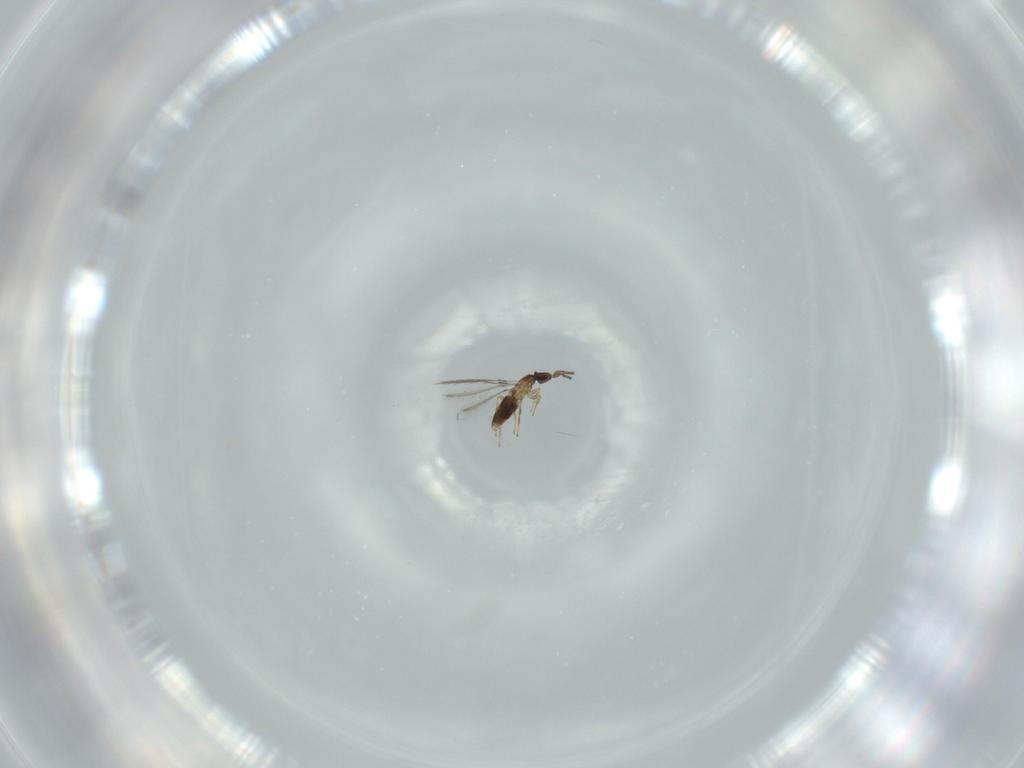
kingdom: Animalia
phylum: Arthropoda
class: Insecta
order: Hymenoptera
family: Mymaridae
